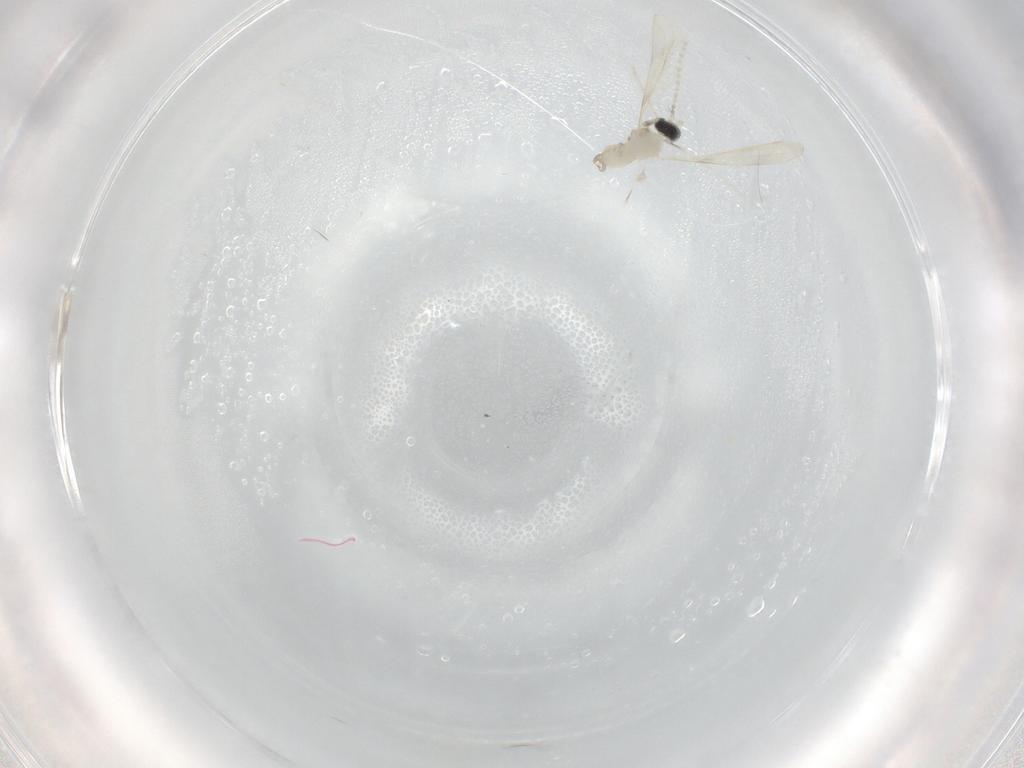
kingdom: Animalia
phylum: Arthropoda
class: Insecta
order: Diptera
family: Cecidomyiidae
